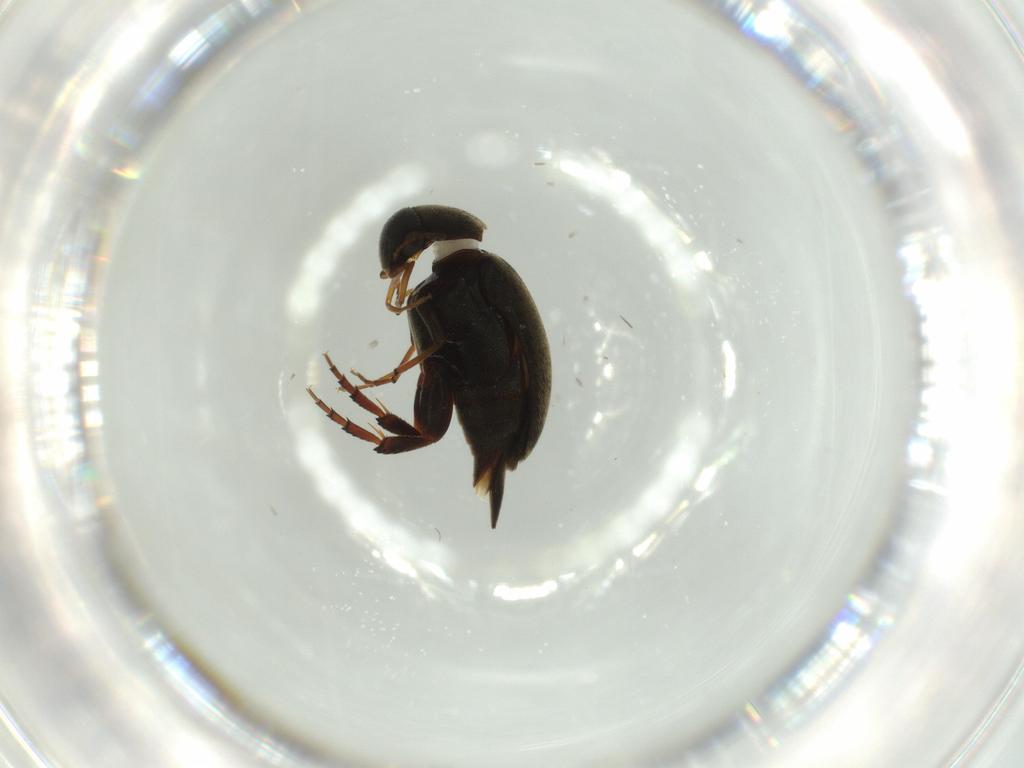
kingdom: Animalia
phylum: Arthropoda
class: Insecta
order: Coleoptera
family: Mordellidae
